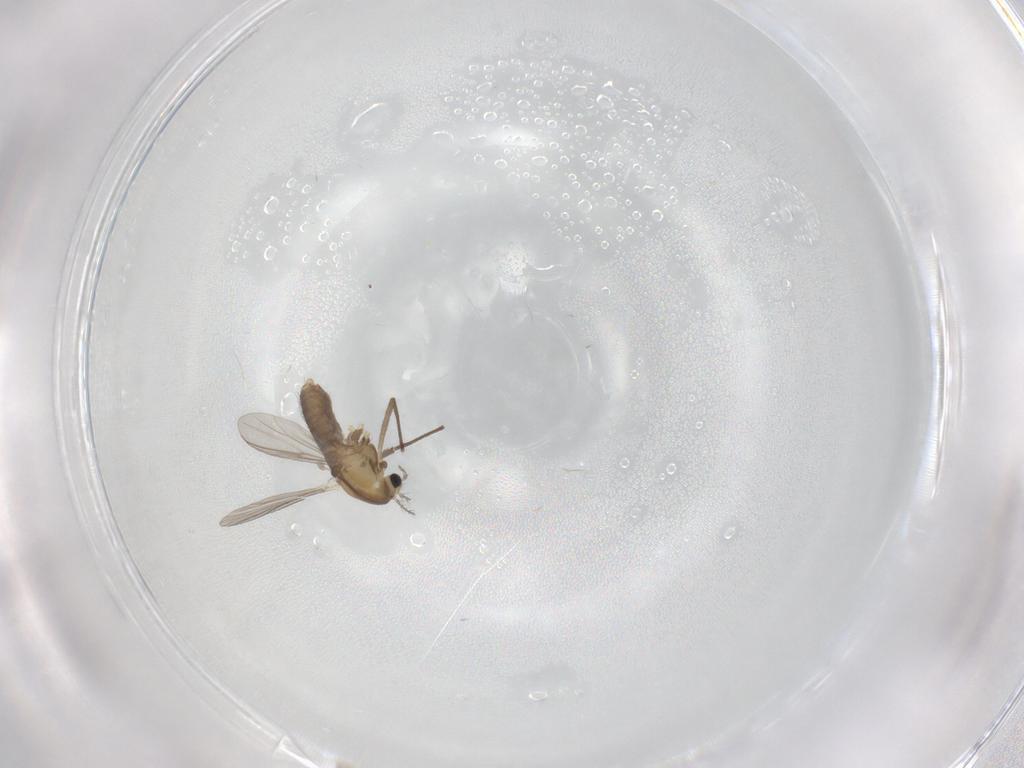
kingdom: Animalia
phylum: Arthropoda
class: Insecta
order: Diptera
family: Chironomidae
